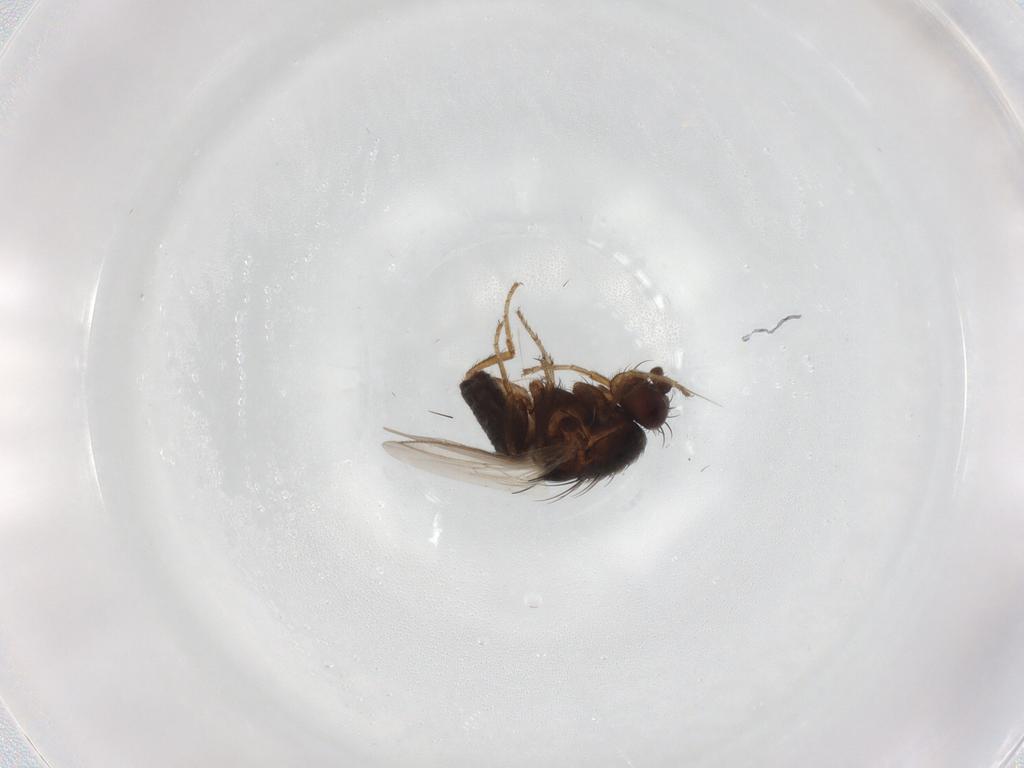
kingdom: Animalia
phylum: Arthropoda
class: Insecta
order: Diptera
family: Sphaeroceridae
